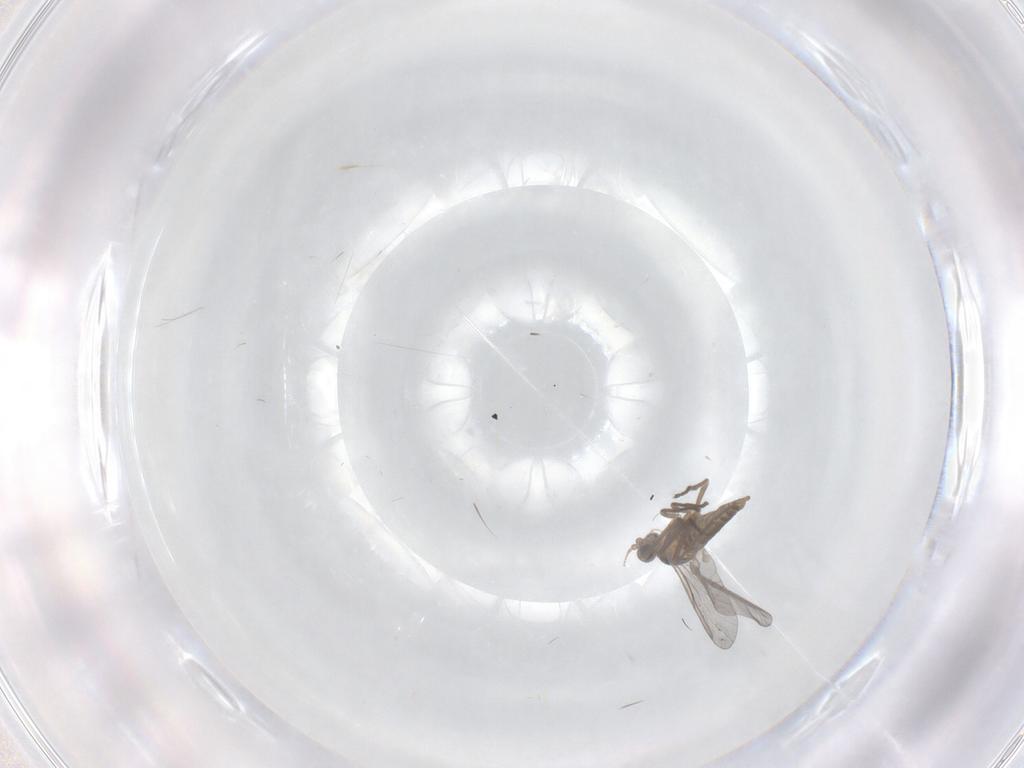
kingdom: Animalia
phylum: Arthropoda
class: Insecta
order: Diptera
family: Cecidomyiidae
